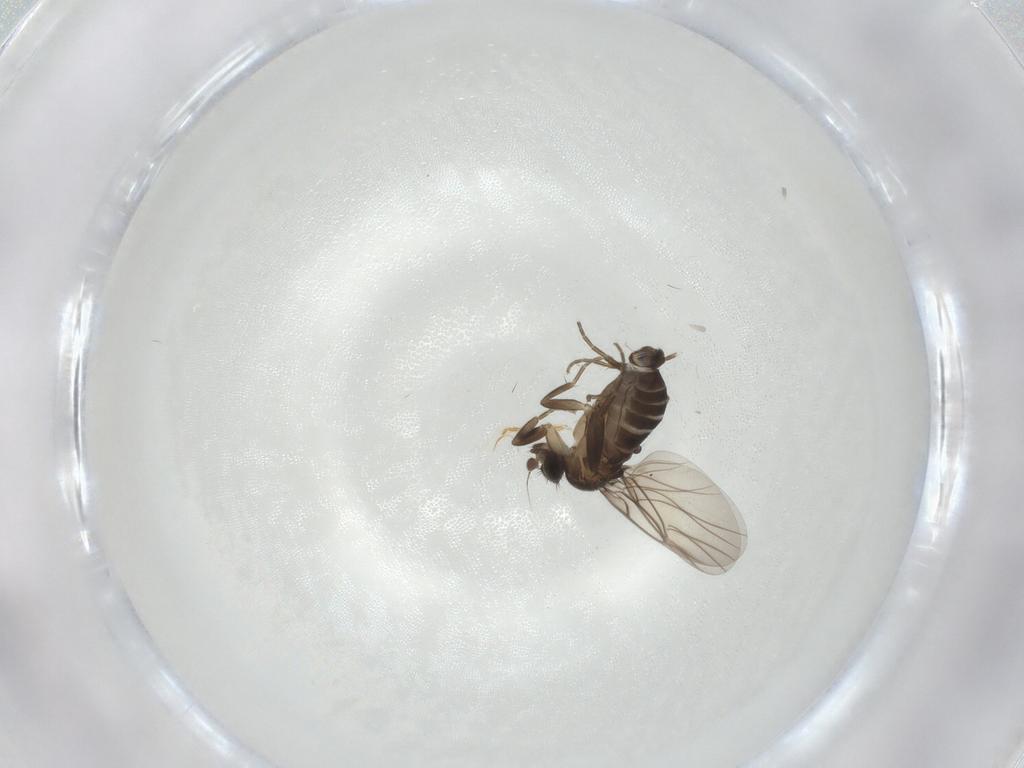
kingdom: Animalia
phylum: Arthropoda
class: Insecta
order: Diptera
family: Phoridae
